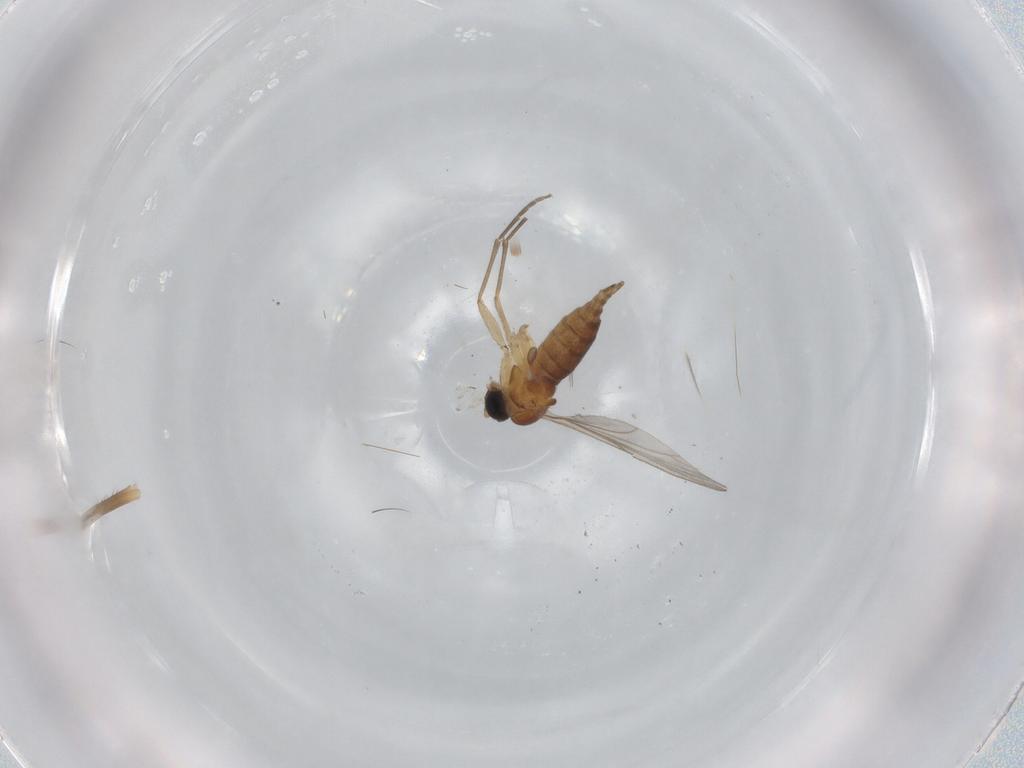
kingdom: Animalia
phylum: Arthropoda
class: Insecta
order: Diptera
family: Sciaridae
